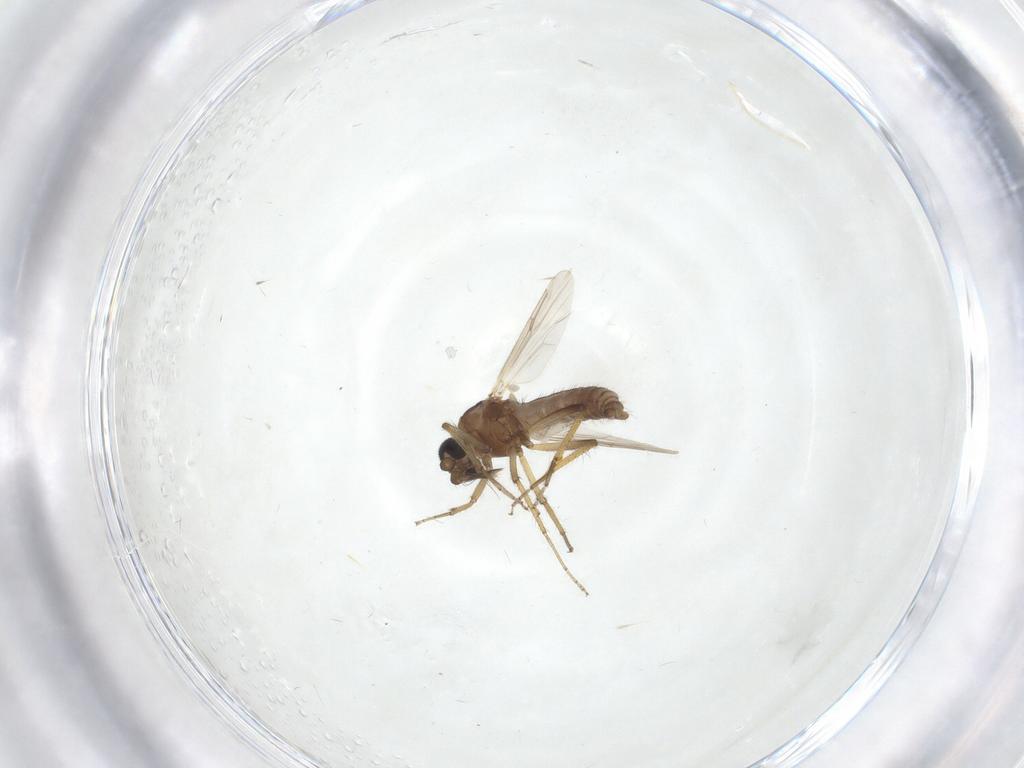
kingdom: Animalia
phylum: Arthropoda
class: Insecta
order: Diptera
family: Ceratopogonidae
